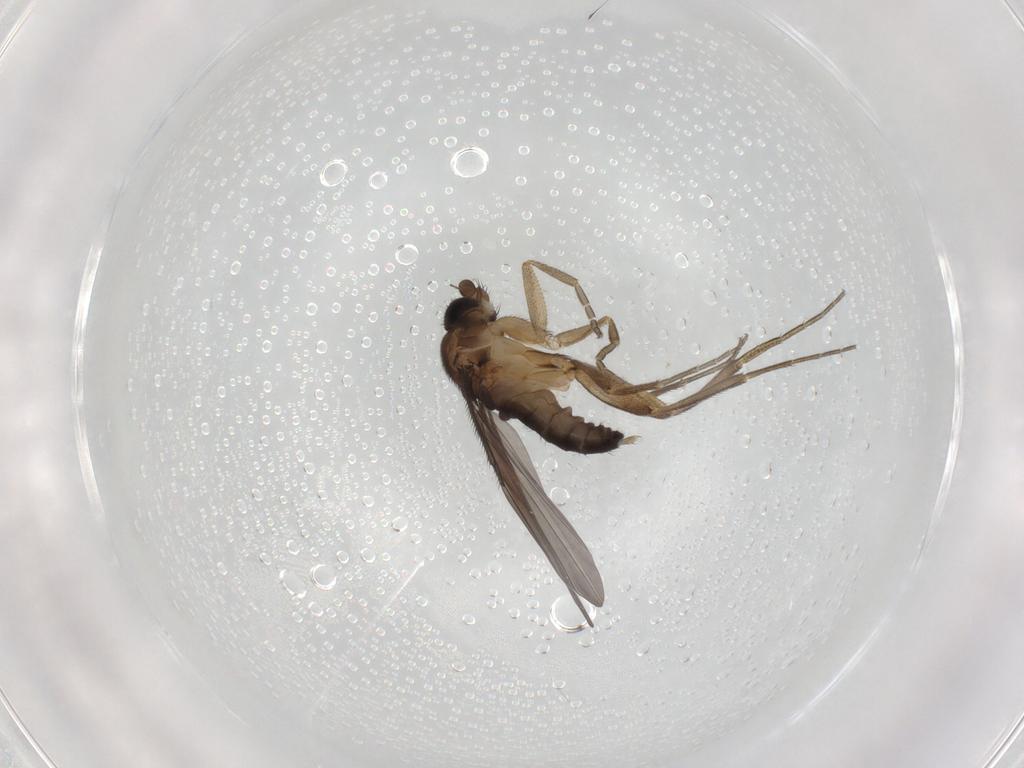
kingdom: Animalia
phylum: Arthropoda
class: Insecta
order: Diptera
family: Phoridae
